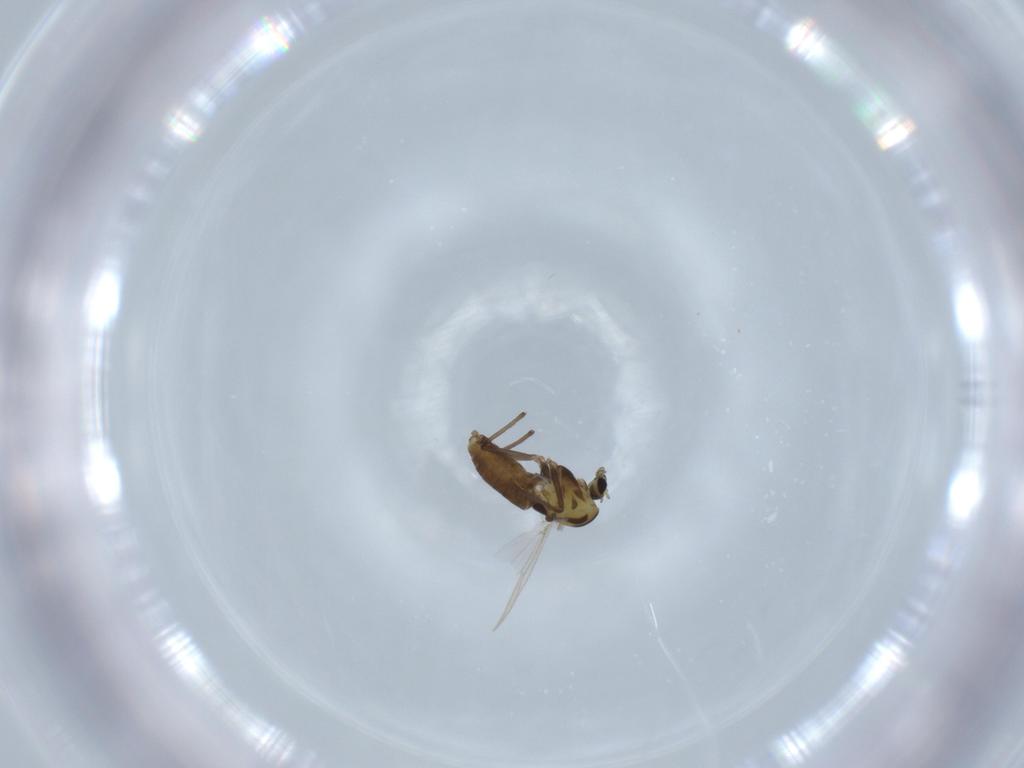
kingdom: Animalia
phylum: Arthropoda
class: Insecta
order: Diptera
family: Chironomidae
